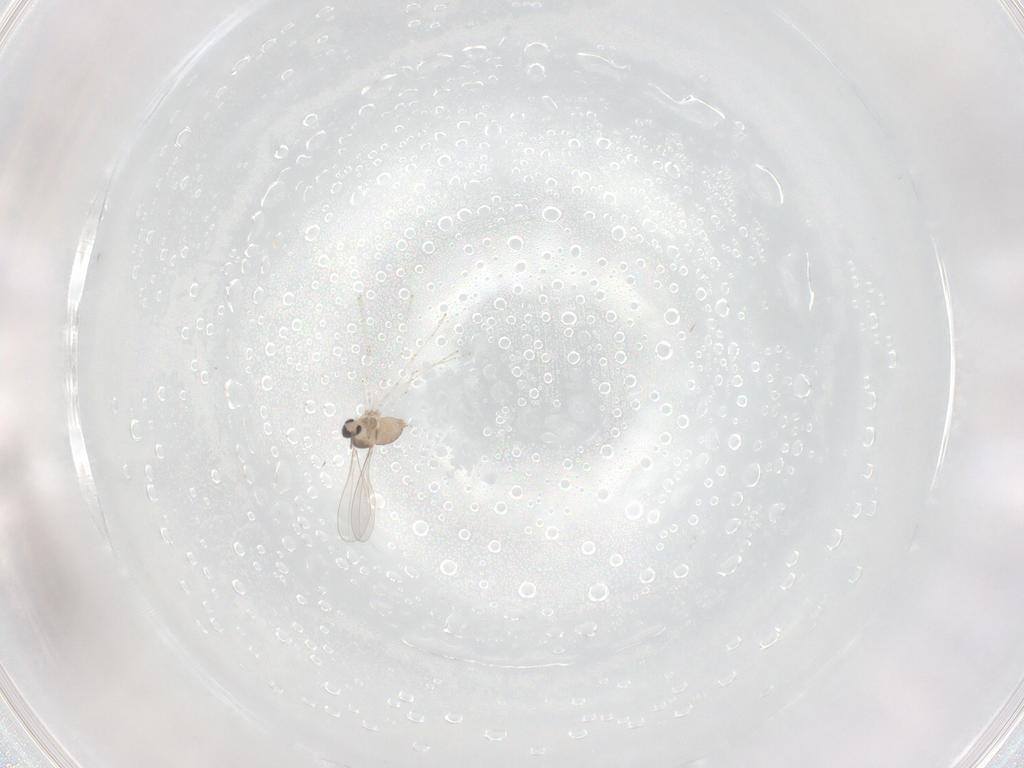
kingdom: Animalia
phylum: Arthropoda
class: Insecta
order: Diptera
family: Cecidomyiidae
